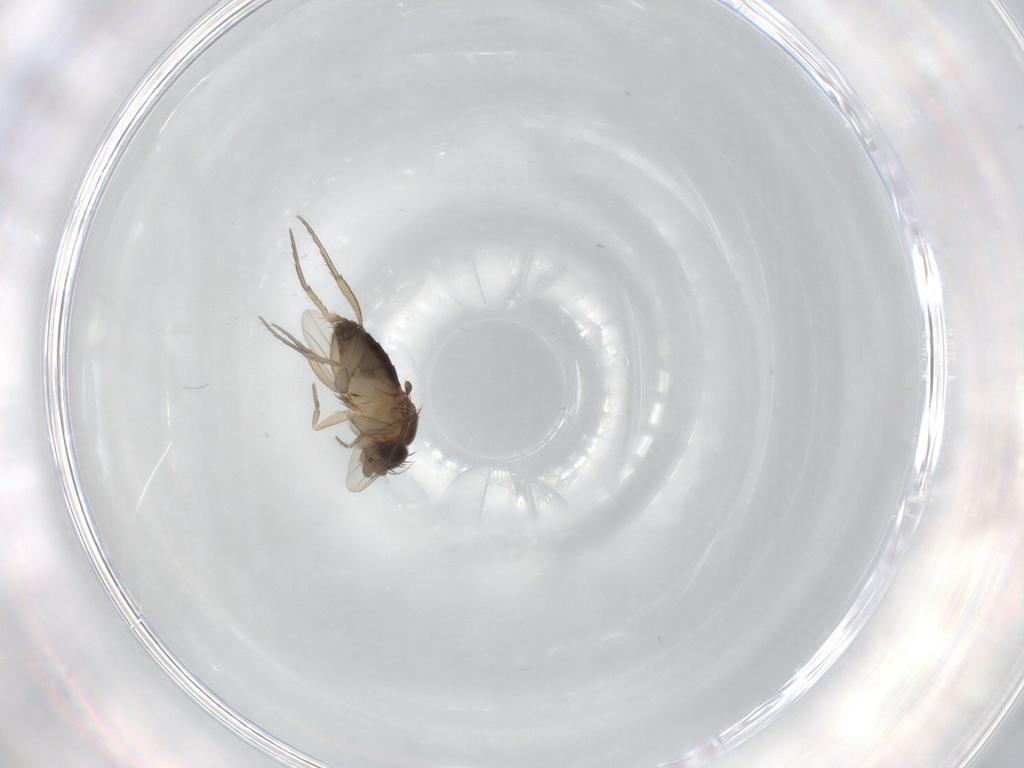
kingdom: Animalia
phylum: Arthropoda
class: Insecta
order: Diptera
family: Phoridae
